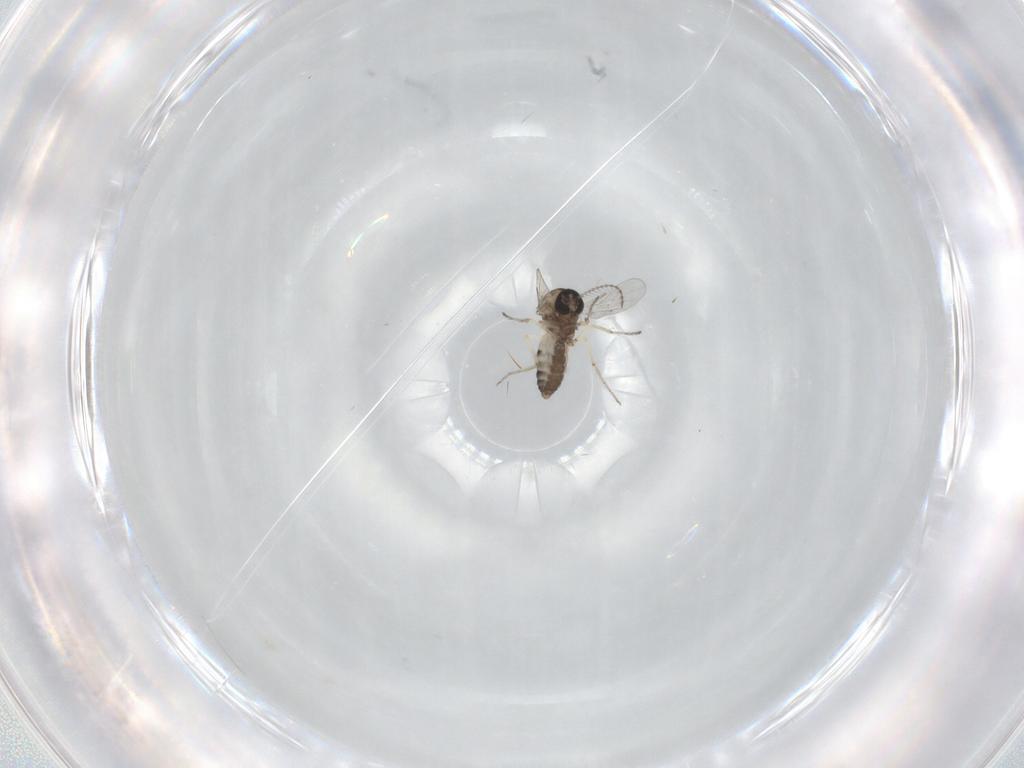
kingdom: Animalia
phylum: Arthropoda
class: Insecta
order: Diptera
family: Ceratopogonidae
